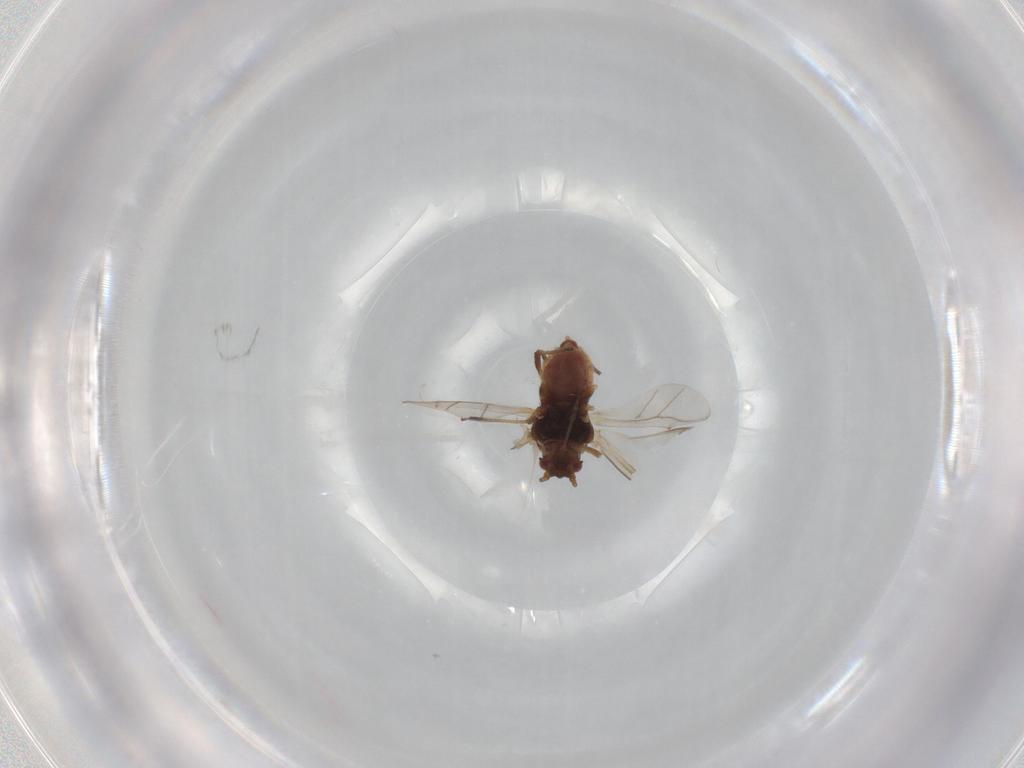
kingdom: Animalia
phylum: Arthropoda
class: Insecta
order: Hemiptera
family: Aphididae
